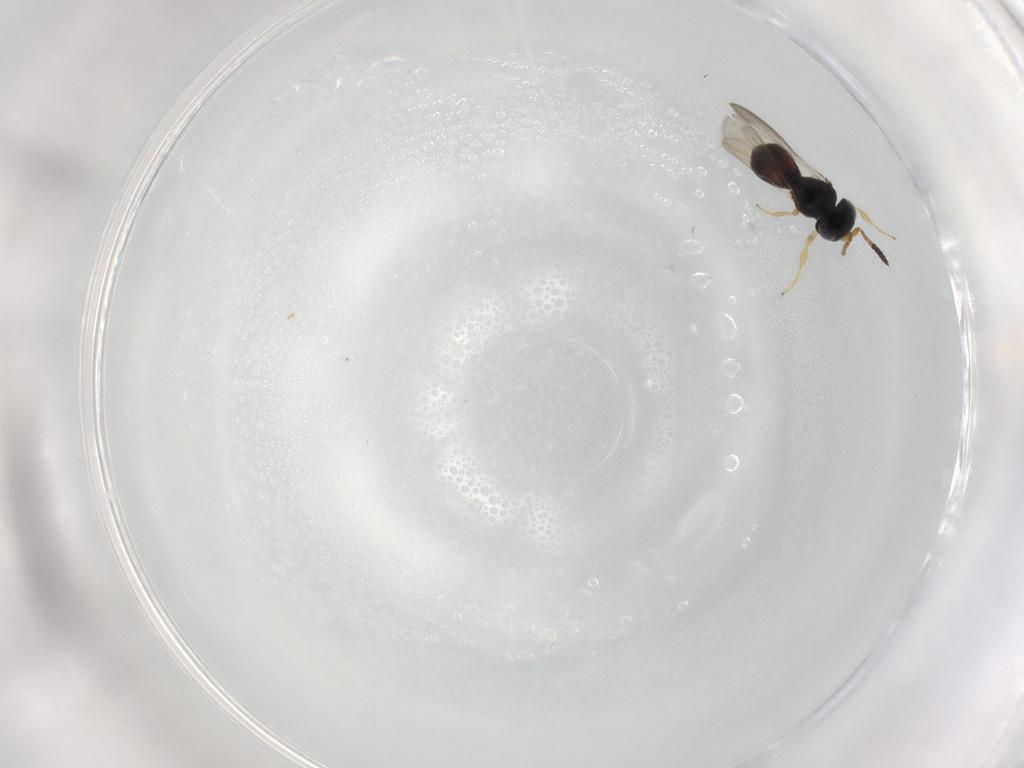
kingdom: Animalia
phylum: Arthropoda
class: Insecta
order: Hymenoptera
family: Scelionidae
